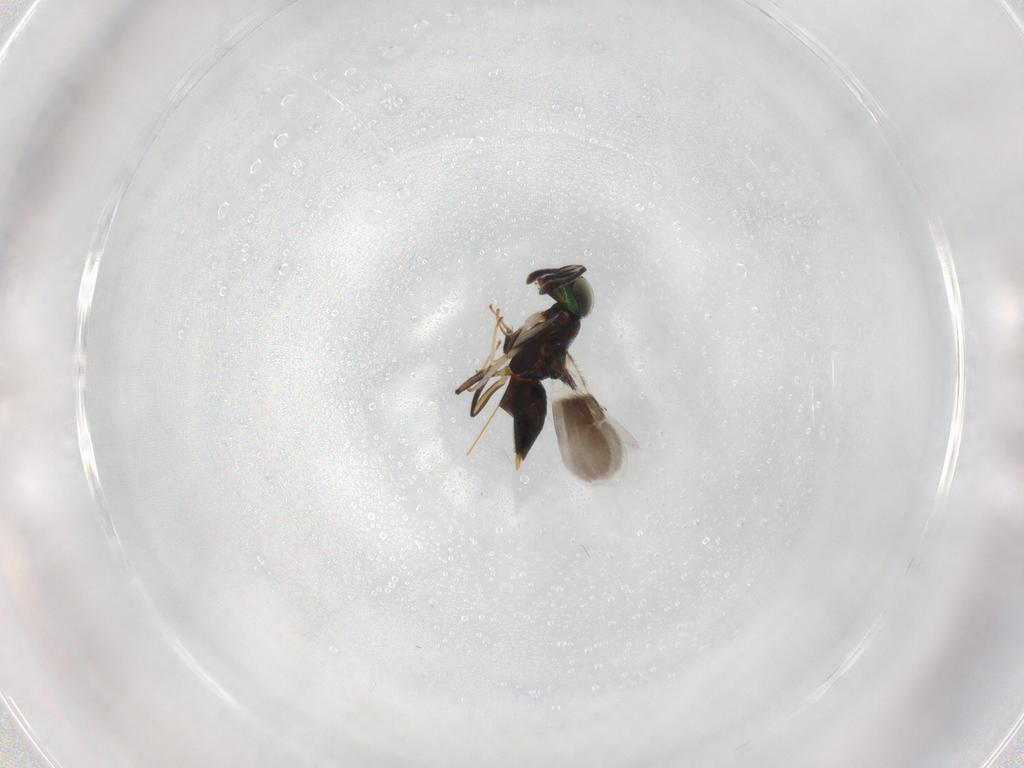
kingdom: Animalia
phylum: Arthropoda
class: Insecta
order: Hymenoptera
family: Encyrtidae
